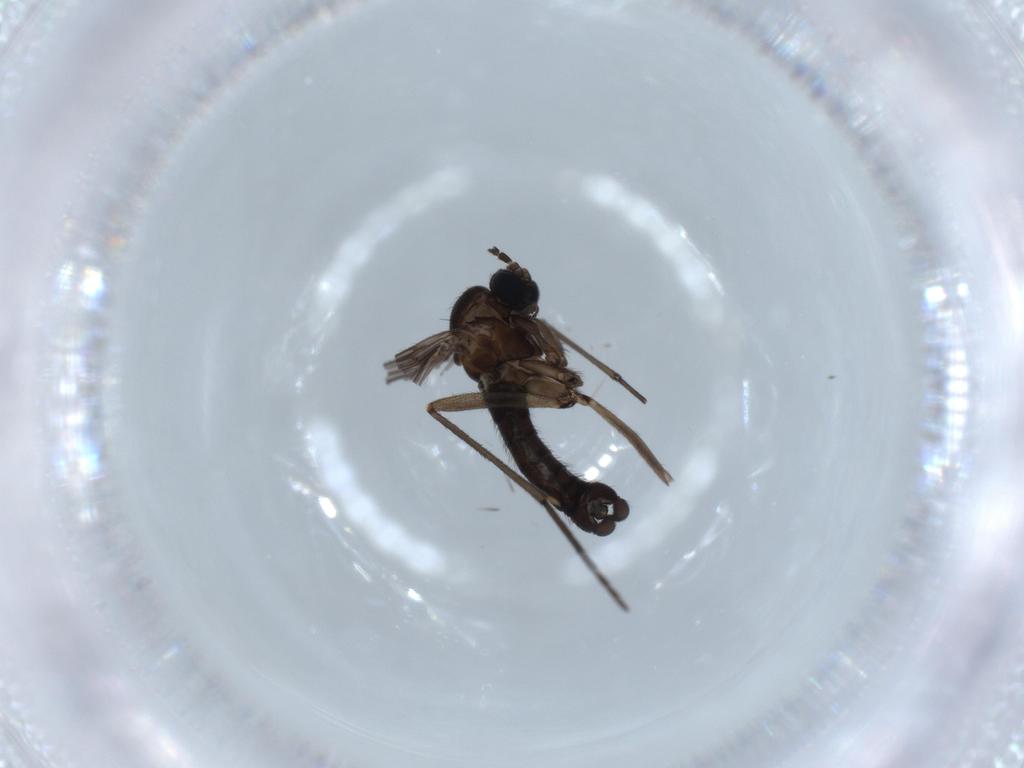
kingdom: Animalia
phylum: Arthropoda
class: Insecta
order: Diptera
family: Sciaridae
